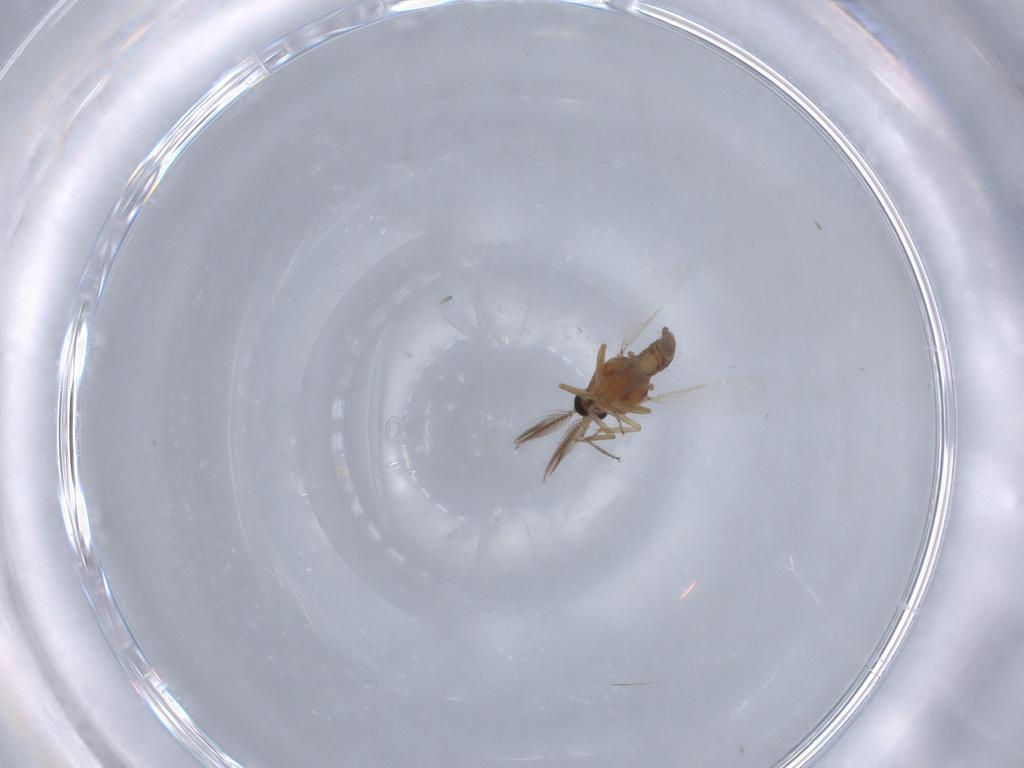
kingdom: Animalia
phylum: Arthropoda
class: Insecta
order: Diptera
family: Ceratopogonidae
